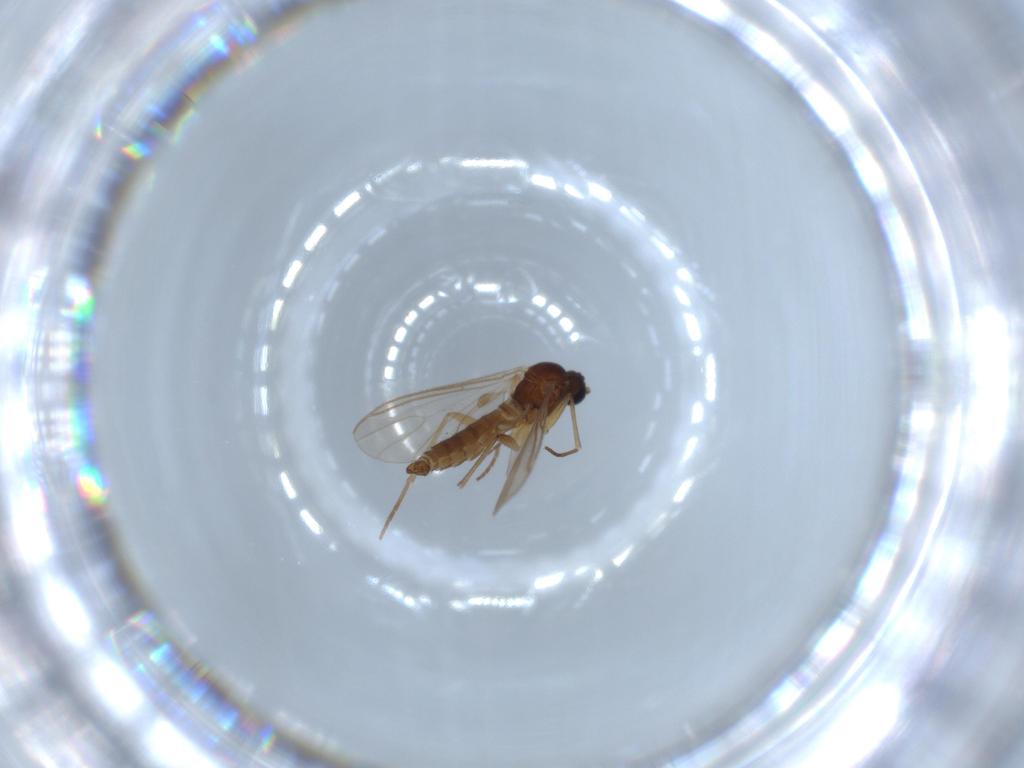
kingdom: Animalia
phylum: Arthropoda
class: Insecta
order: Diptera
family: Sciaridae
